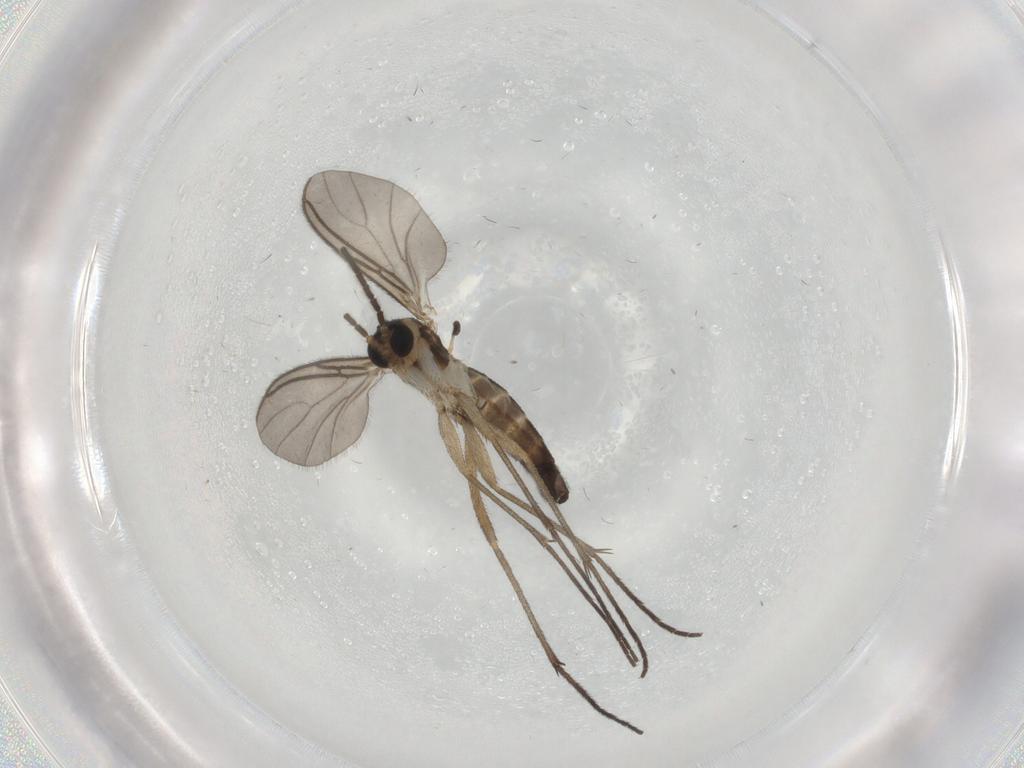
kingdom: Animalia
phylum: Arthropoda
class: Insecta
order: Diptera
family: Sciaridae
